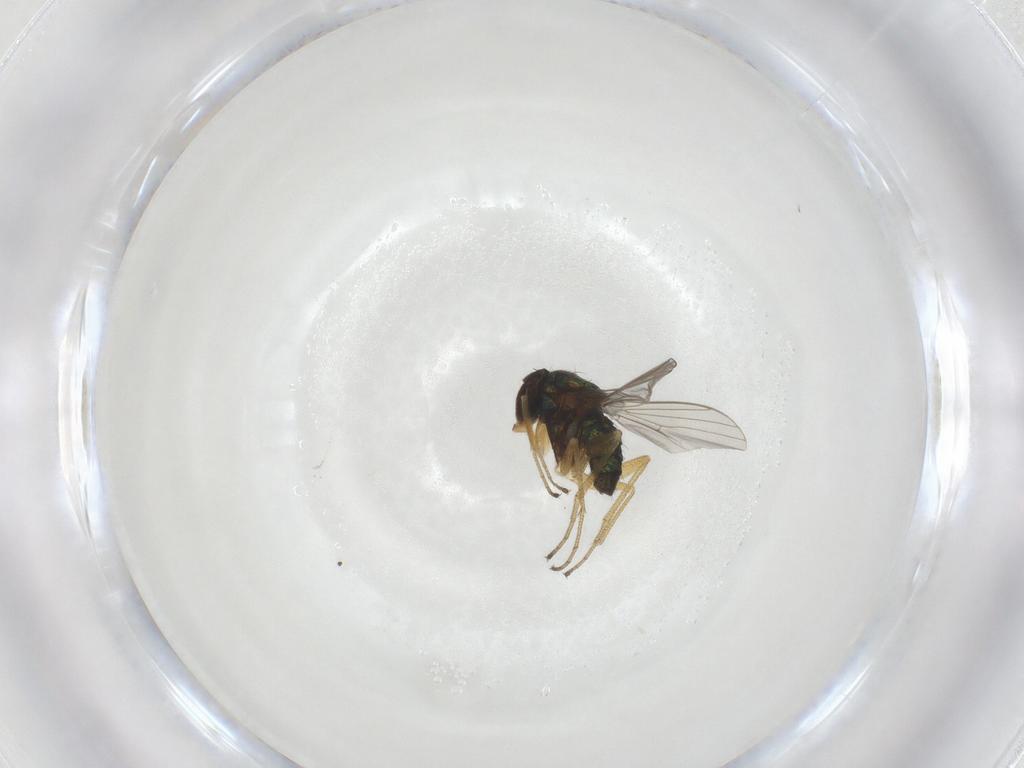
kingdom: Animalia
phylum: Arthropoda
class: Insecta
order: Diptera
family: Dolichopodidae
